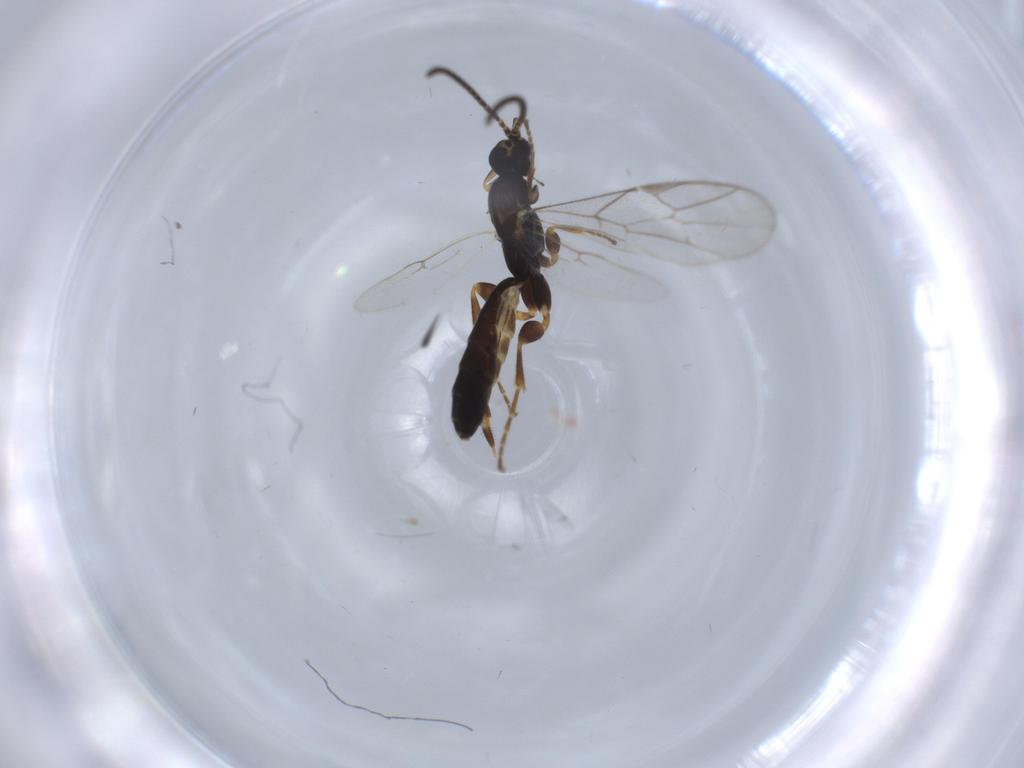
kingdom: Animalia
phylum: Arthropoda
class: Insecta
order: Hymenoptera
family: Ichneumonidae
